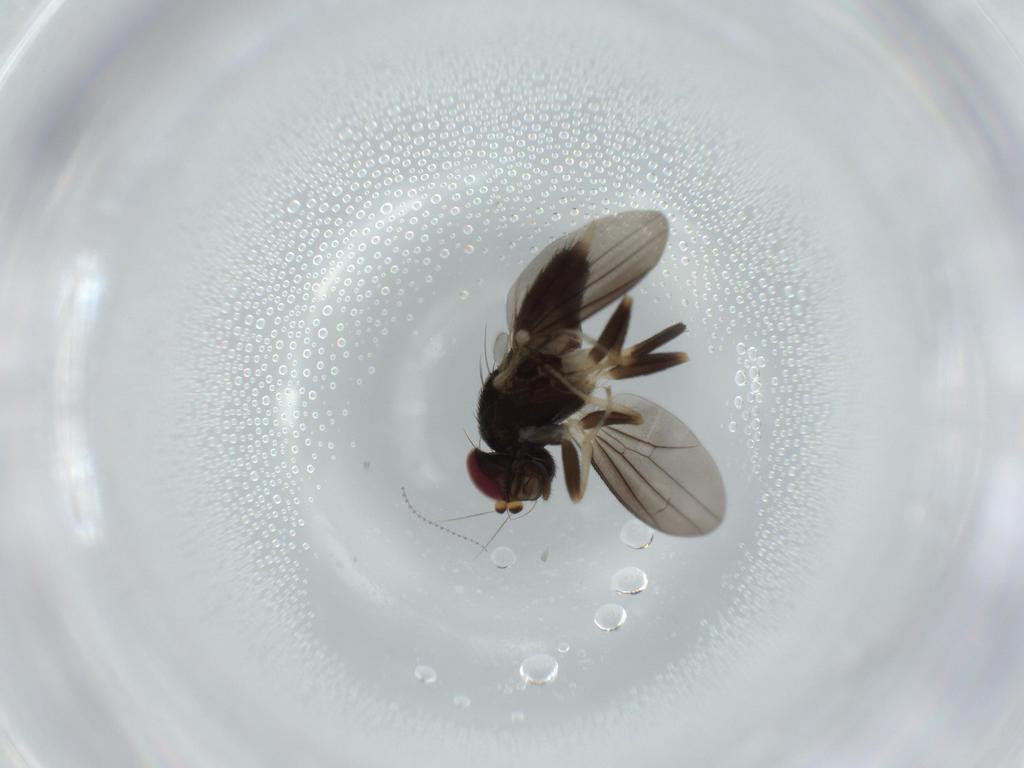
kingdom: Animalia
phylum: Arthropoda
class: Insecta
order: Diptera
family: Clusiidae
